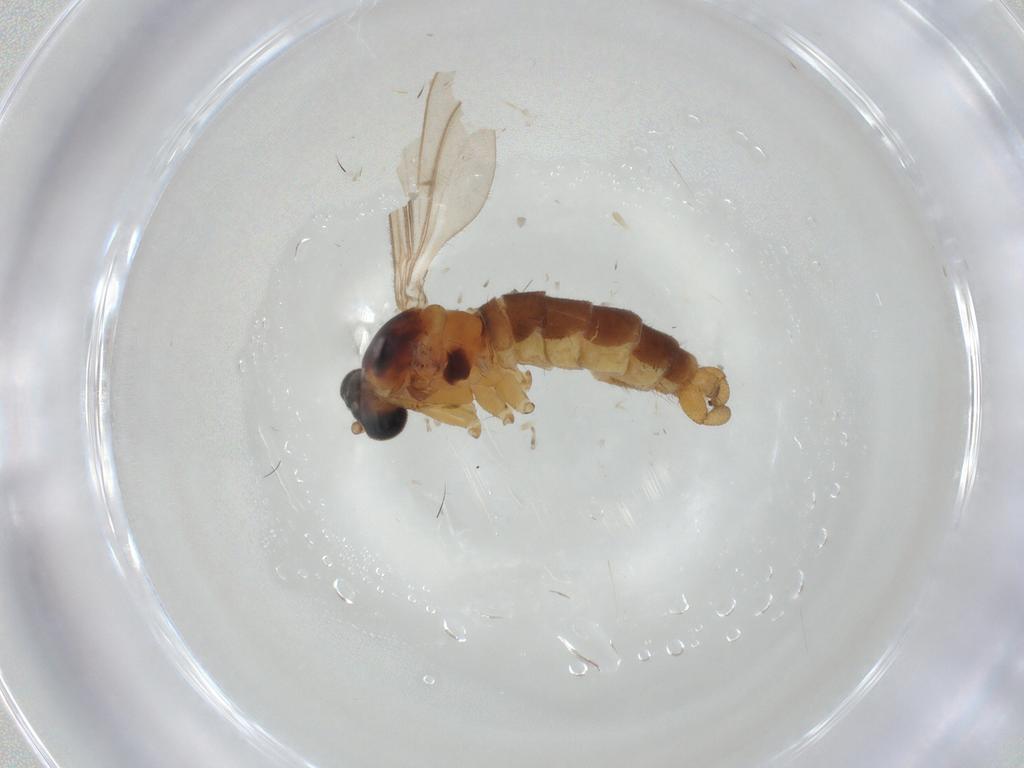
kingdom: Animalia
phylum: Arthropoda
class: Insecta
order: Diptera
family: Sciaridae
